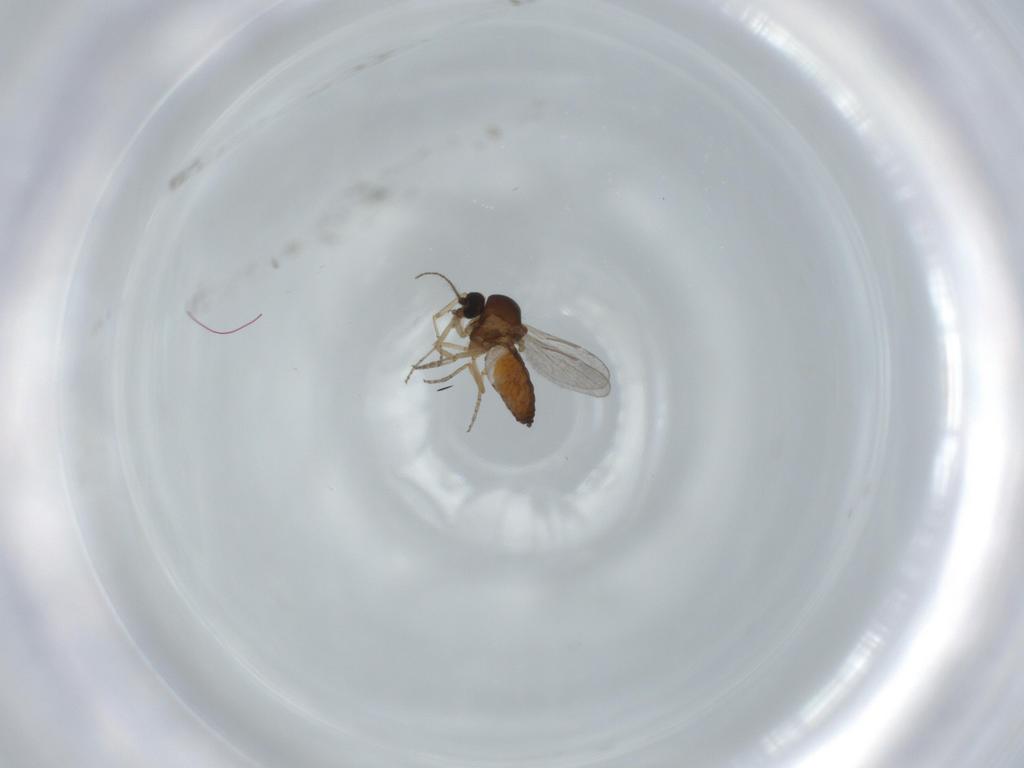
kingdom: Animalia
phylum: Arthropoda
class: Insecta
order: Diptera
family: Ceratopogonidae
